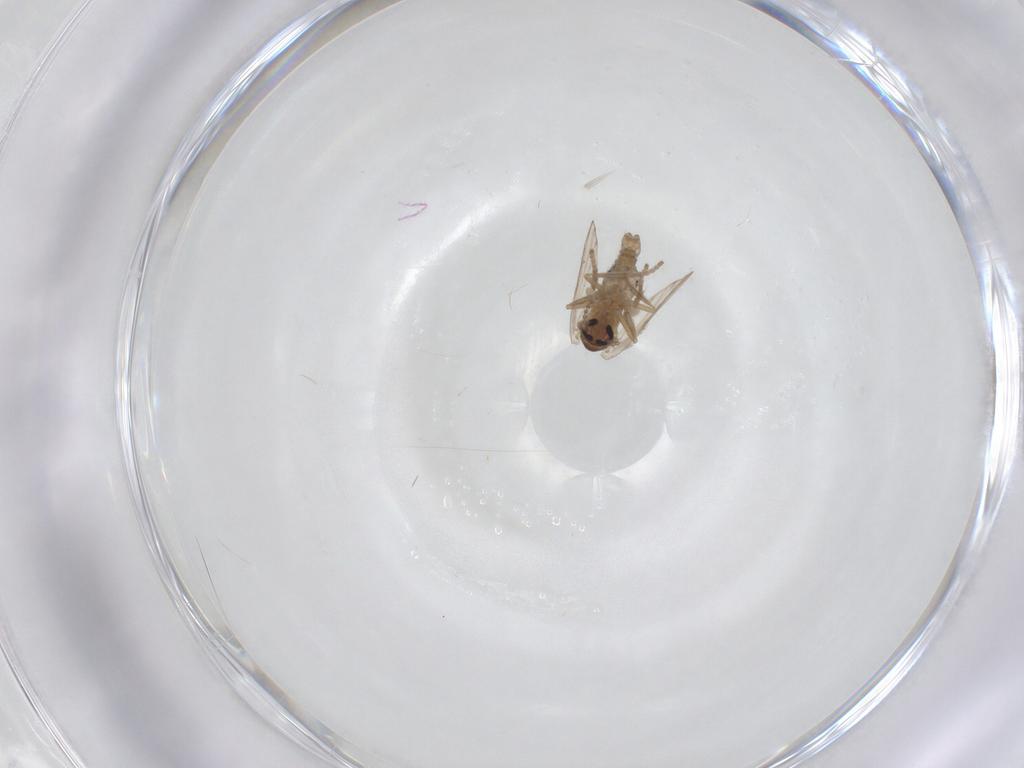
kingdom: Animalia
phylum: Arthropoda
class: Insecta
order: Diptera
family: Psychodidae
